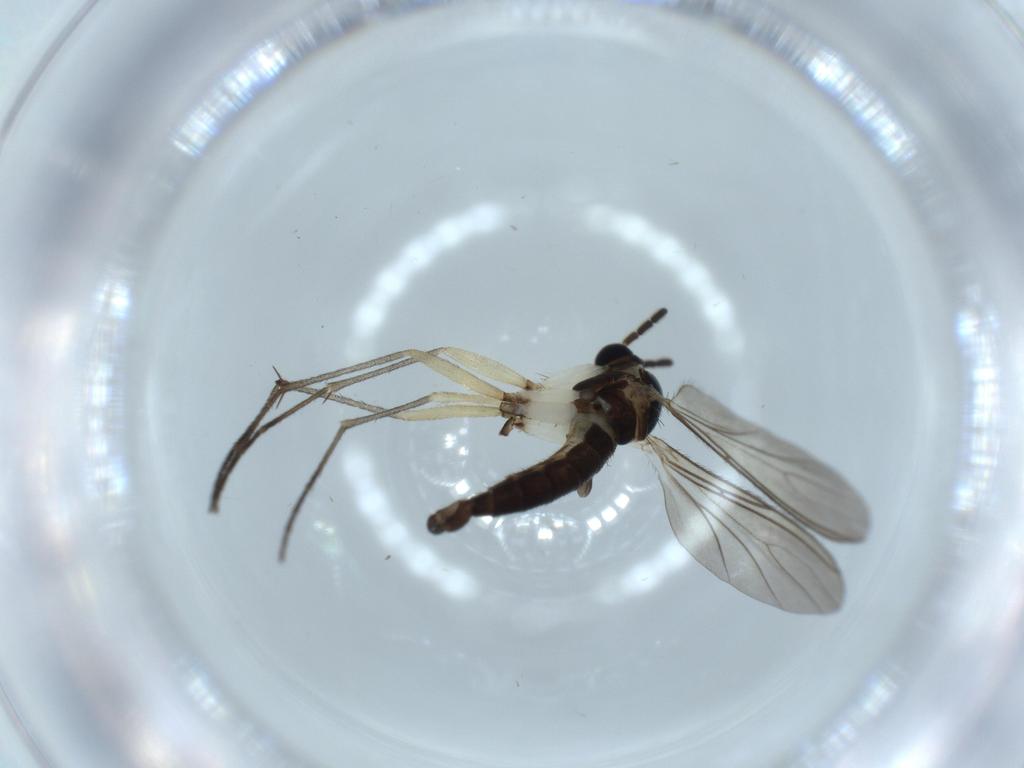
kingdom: Animalia
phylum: Arthropoda
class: Insecta
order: Diptera
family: Sciaridae
